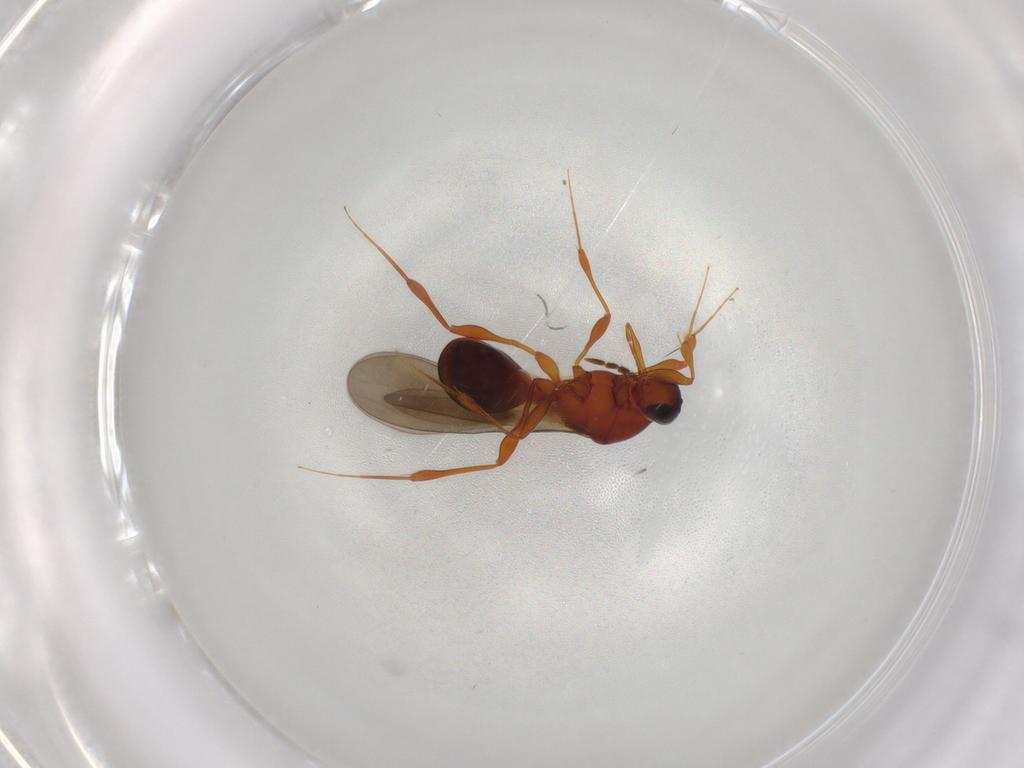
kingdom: Animalia
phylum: Arthropoda
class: Insecta
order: Hymenoptera
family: Platygastridae
